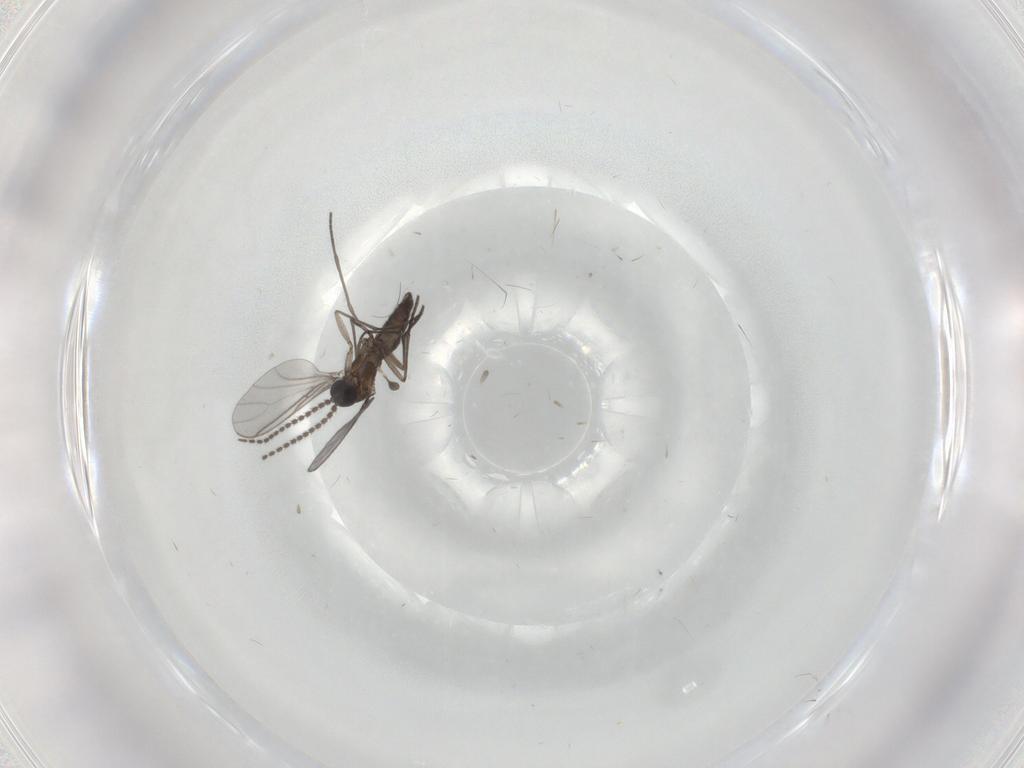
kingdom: Animalia
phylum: Arthropoda
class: Insecta
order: Diptera
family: Sciaridae
